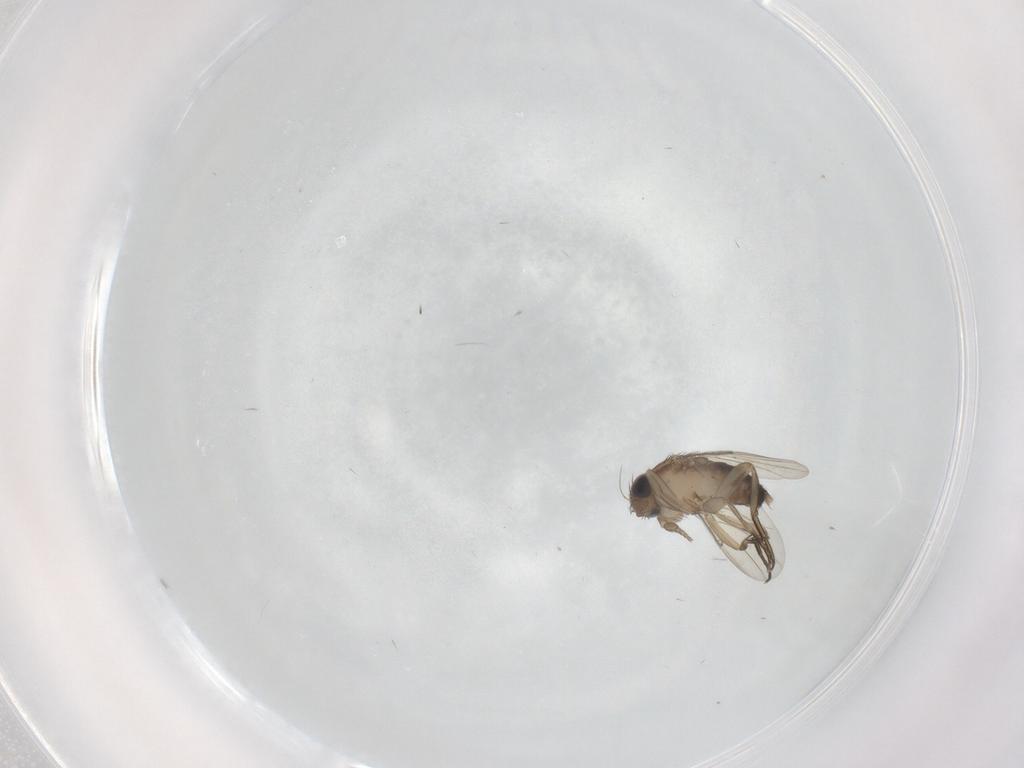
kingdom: Animalia
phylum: Arthropoda
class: Insecta
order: Diptera
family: Phoridae
